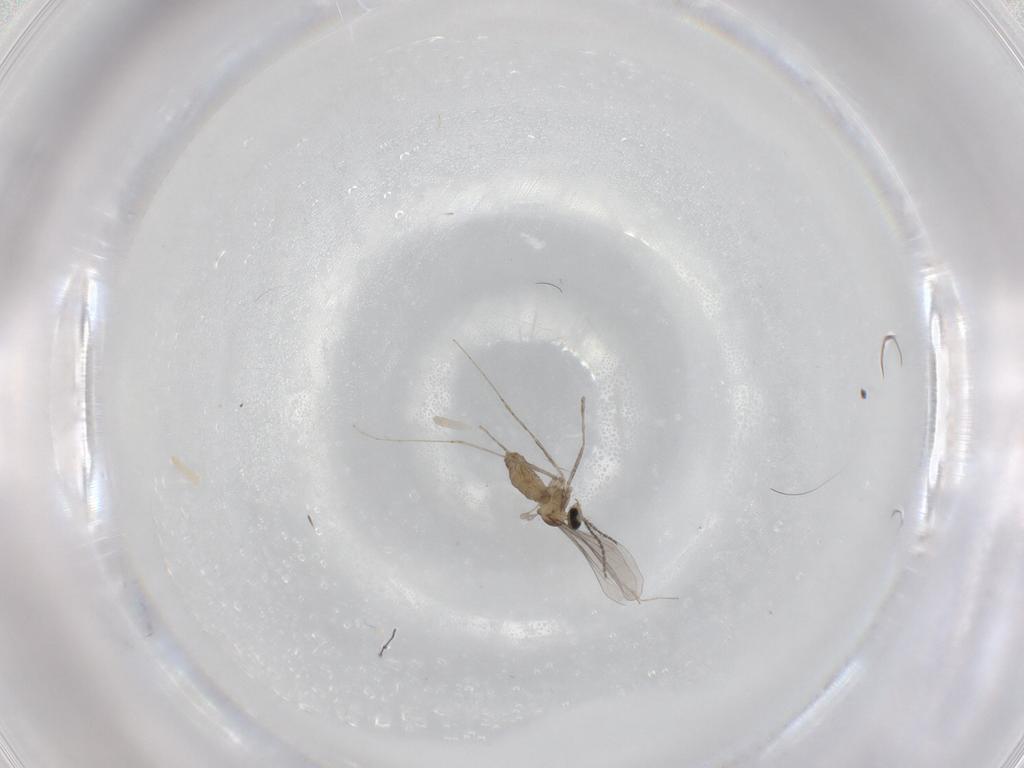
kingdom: Animalia
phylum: Arthropoda
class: Insecta
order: Diptera
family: Cecidomyiidae
